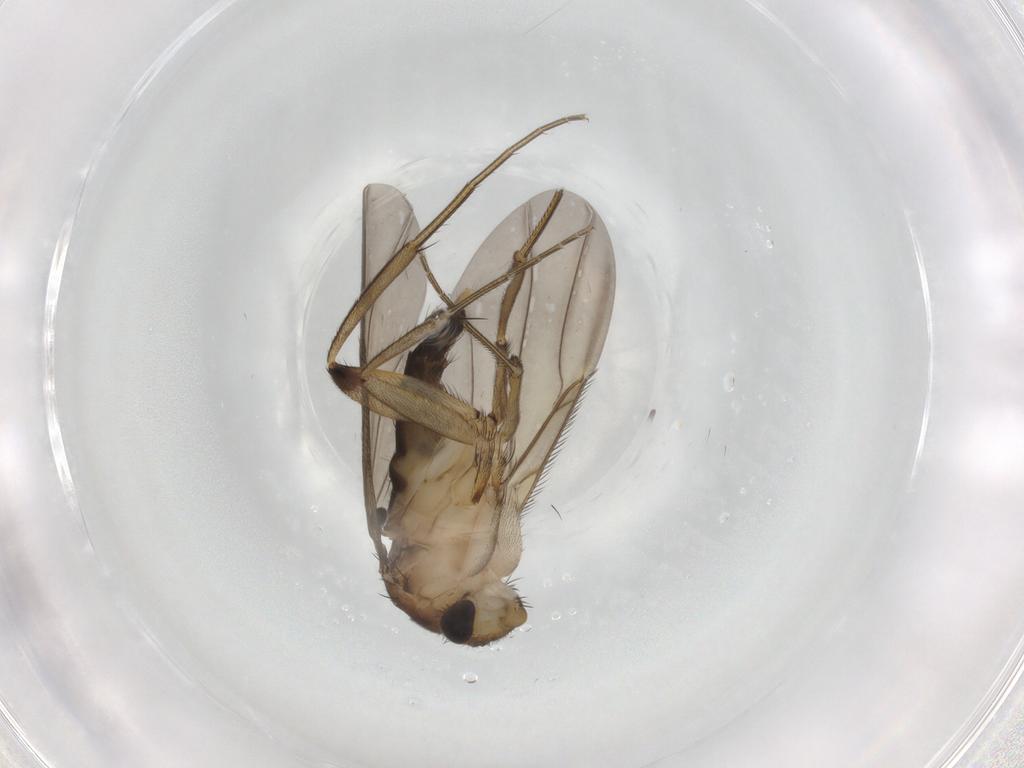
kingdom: Animalia
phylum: Arthropoda
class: Insecta
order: Diptera
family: Phoridae
